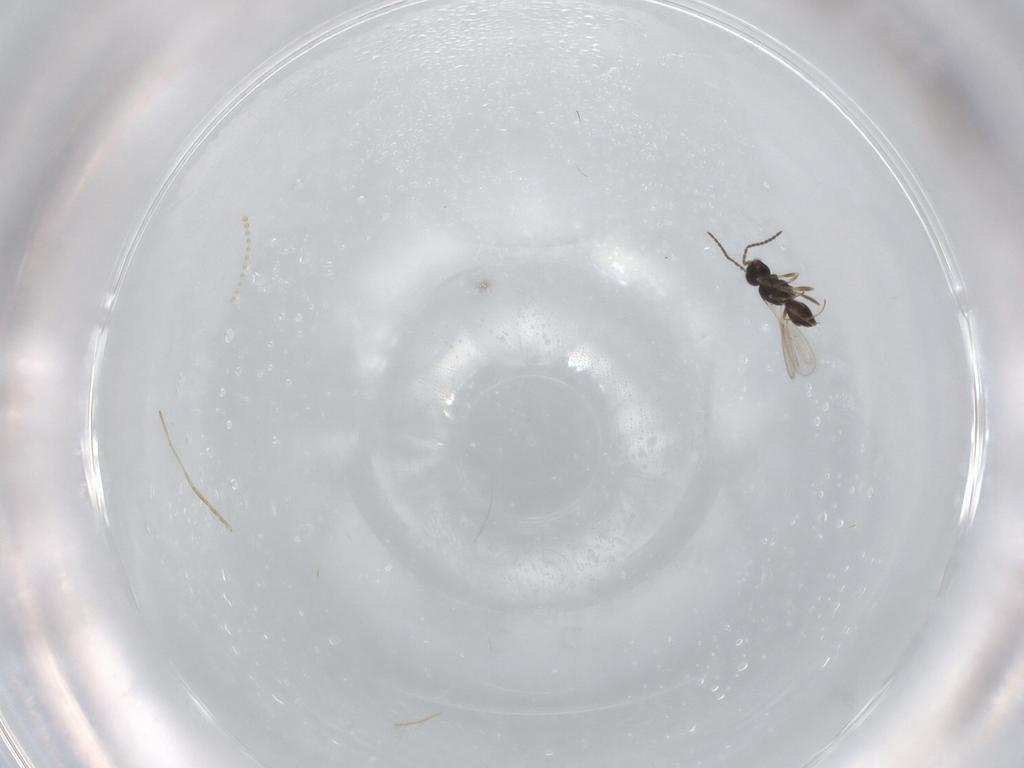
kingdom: Animalia
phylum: Arthropoda
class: Insecta
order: Hymenoptera
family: Scelionidae
